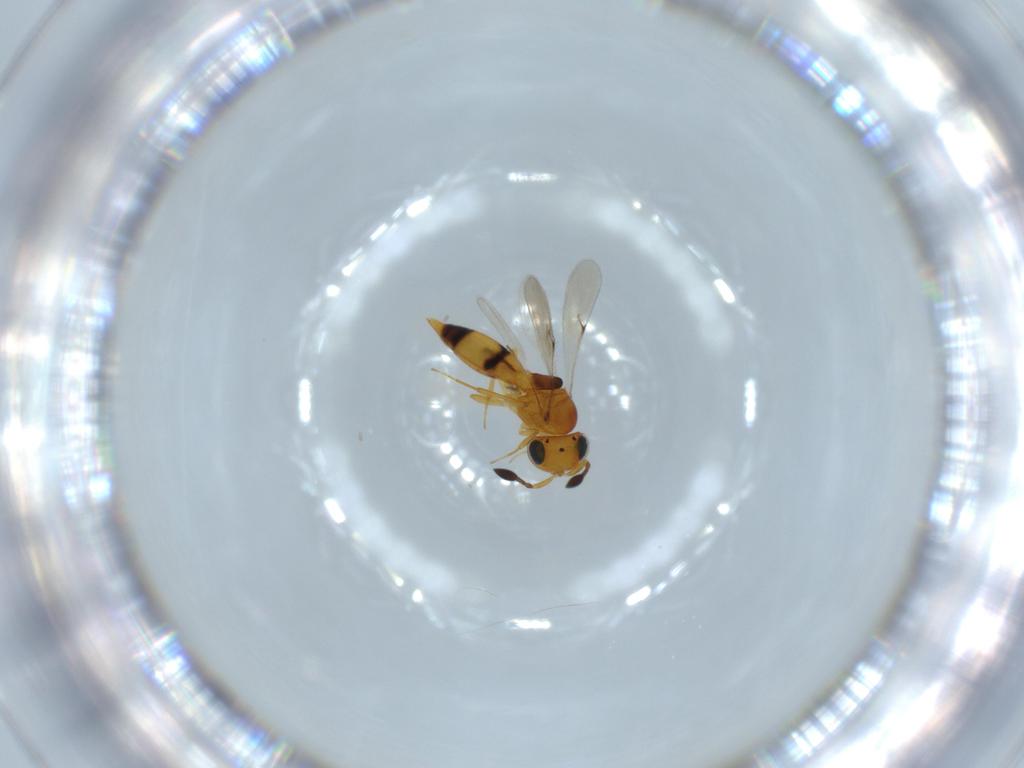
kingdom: Animalia
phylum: Arthropoda
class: Insecta
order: Hymenoptera
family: Scelionidae
